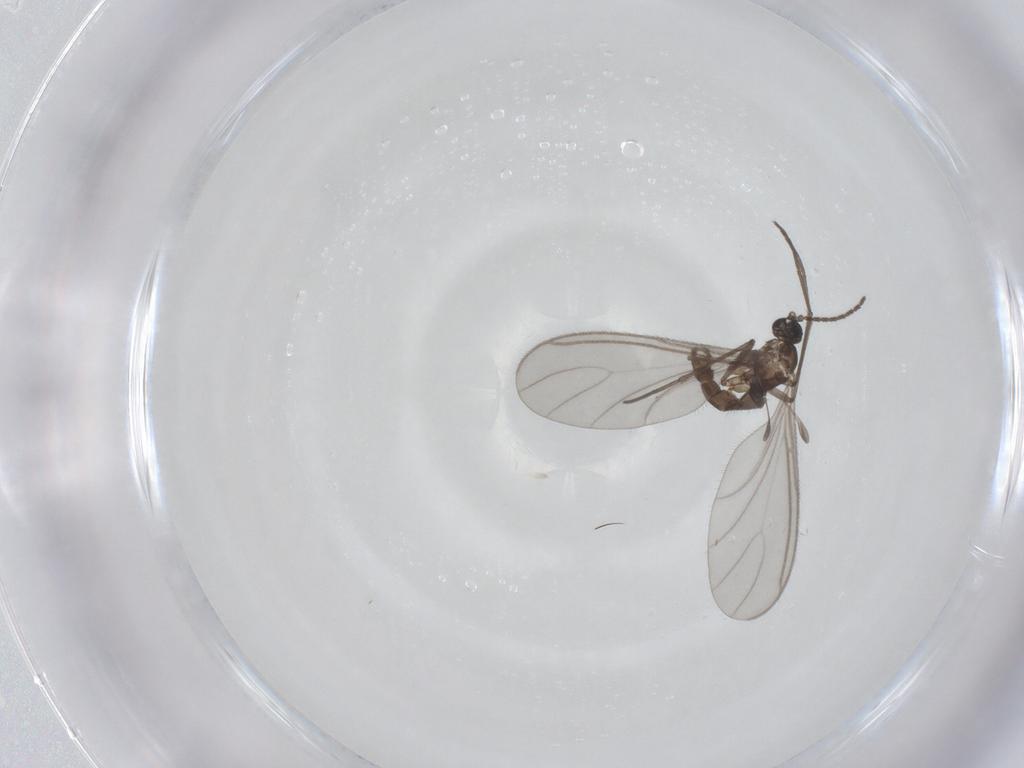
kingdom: Animalia
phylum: Arthropoda
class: Insecta
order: Diptera
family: Sciaridae
